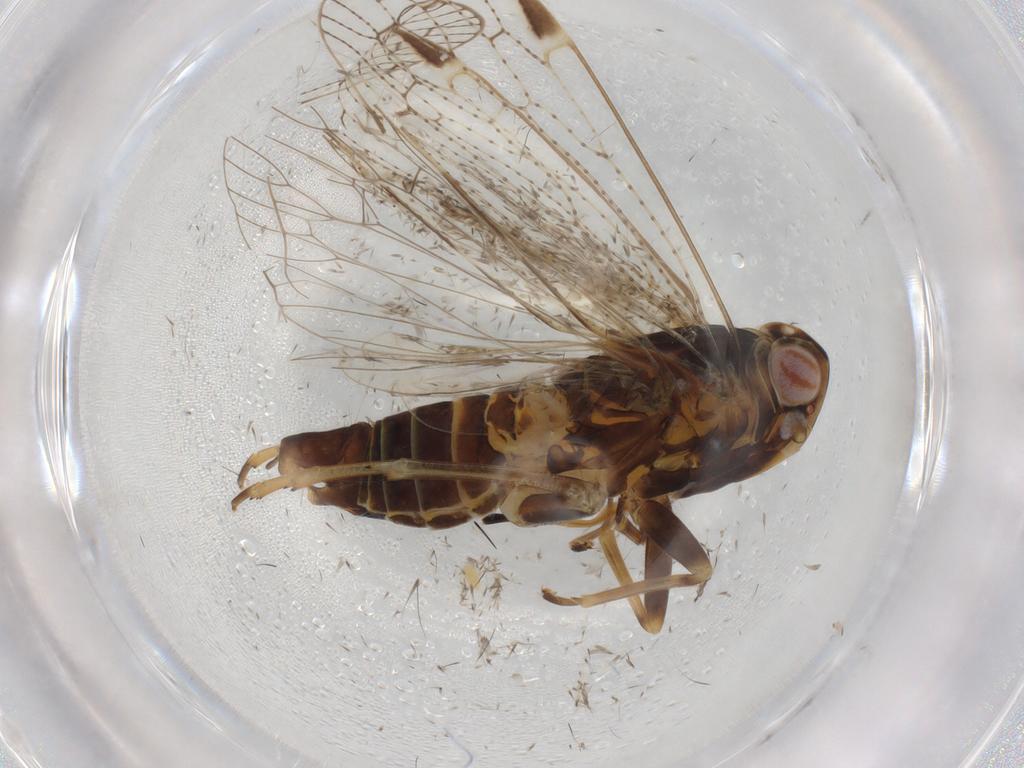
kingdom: Animalia
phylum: Arthropoda
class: Insecta
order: Hemiptera
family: Cixiidae
